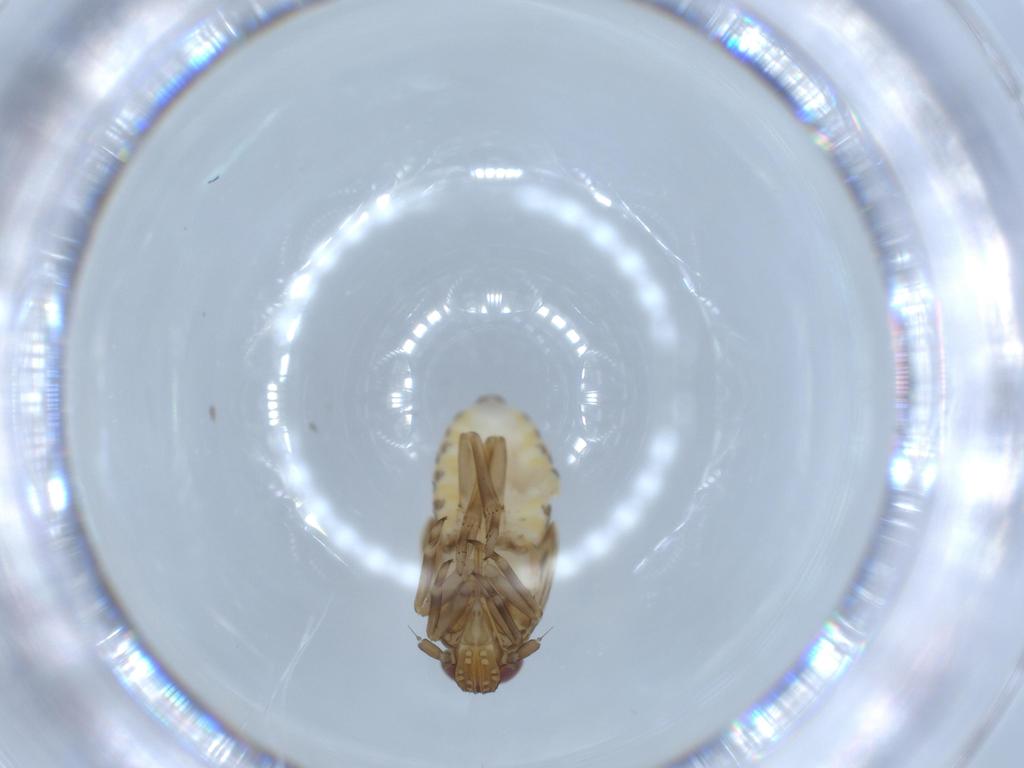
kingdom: Animalia
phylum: Arthropoda
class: Insecta
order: Hemiptera
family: Delphacidae
